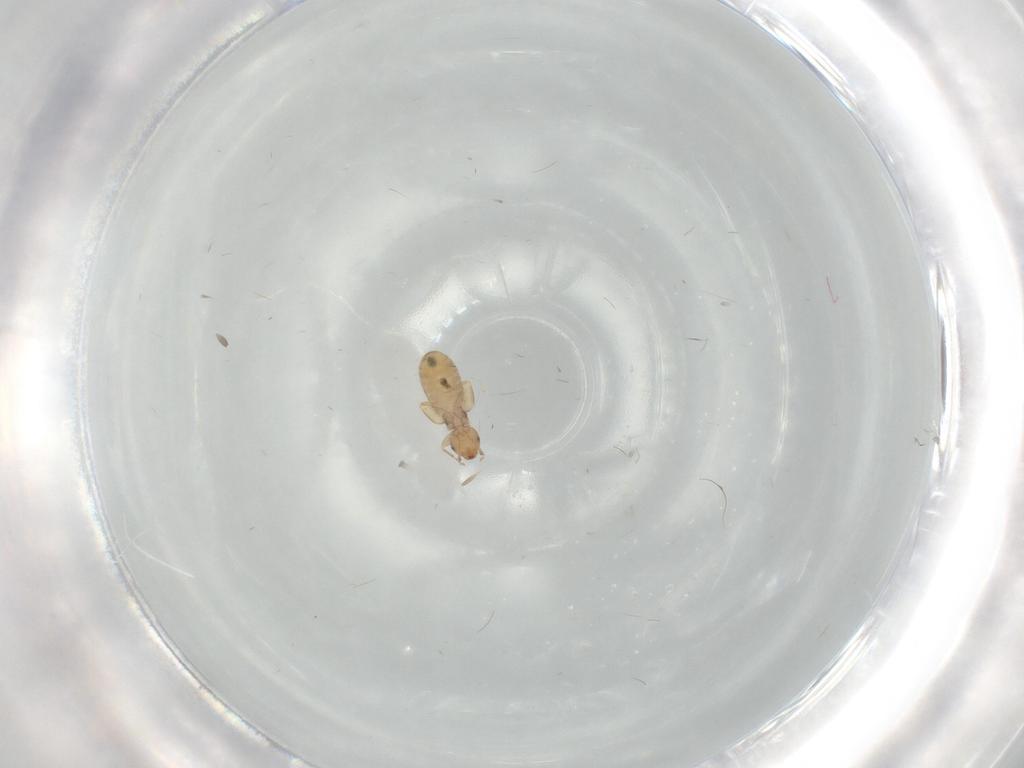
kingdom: Animalia
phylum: Arthropoda
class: Insecta
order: Psocodea
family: Liposcelididae
